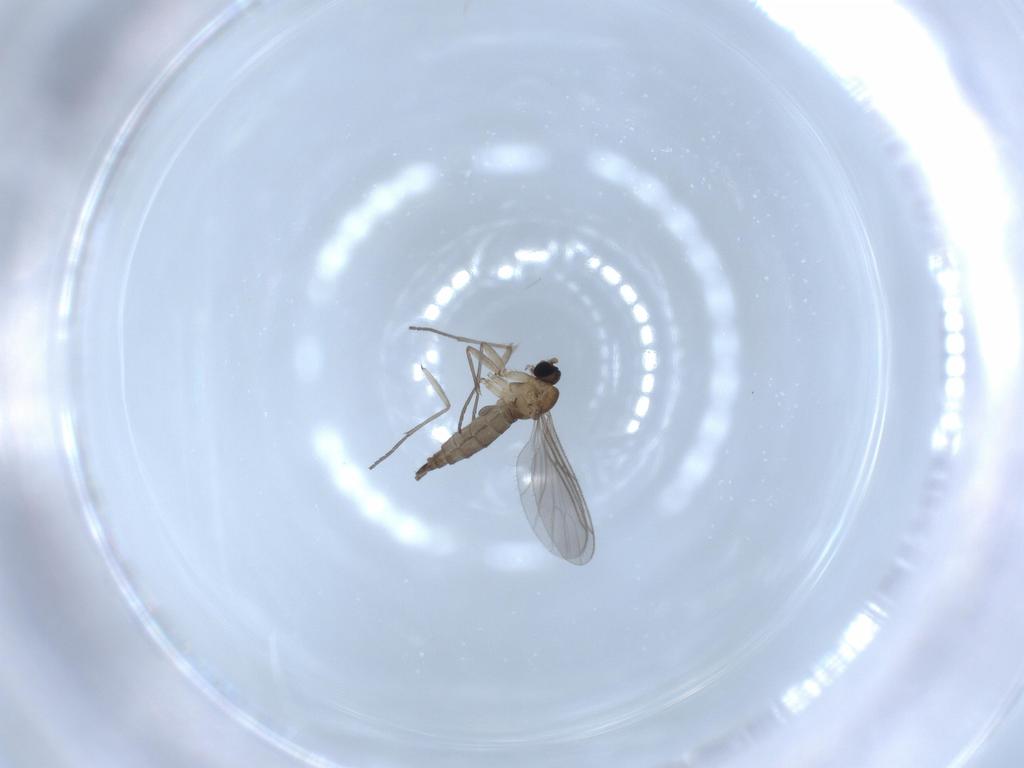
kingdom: Animalia
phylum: Arthropoda
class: Insecta
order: Diptera
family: Sciaridae
